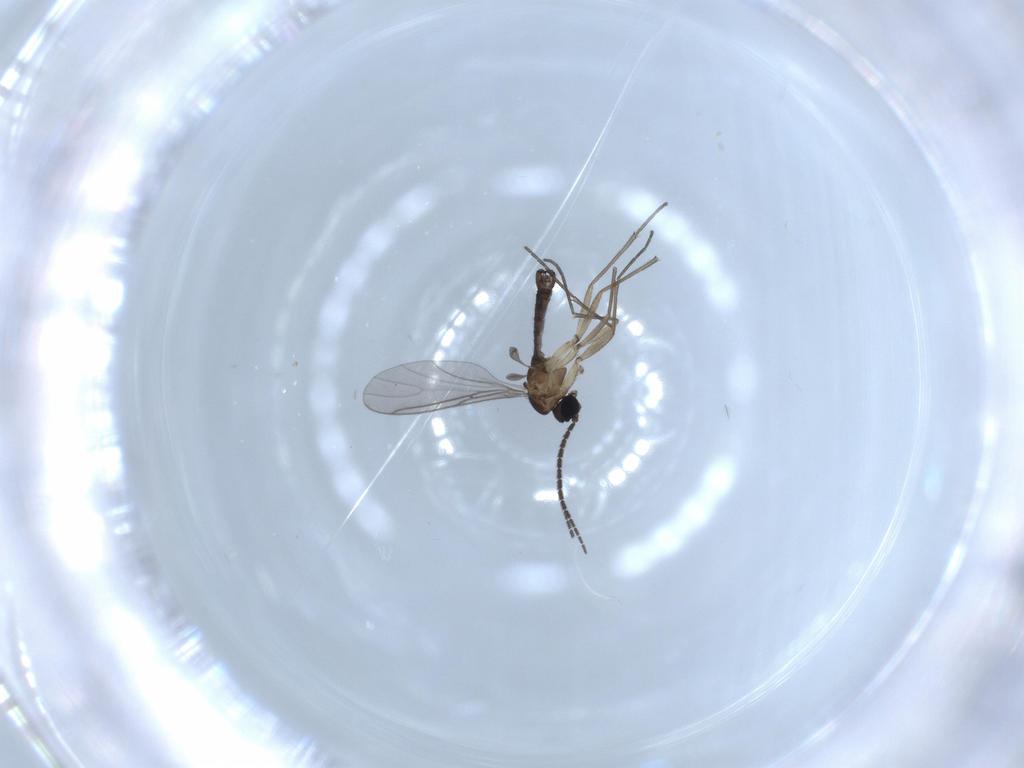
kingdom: Animalia
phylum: Arthropoda
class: Insecta
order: Diptera
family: Sciaridae
